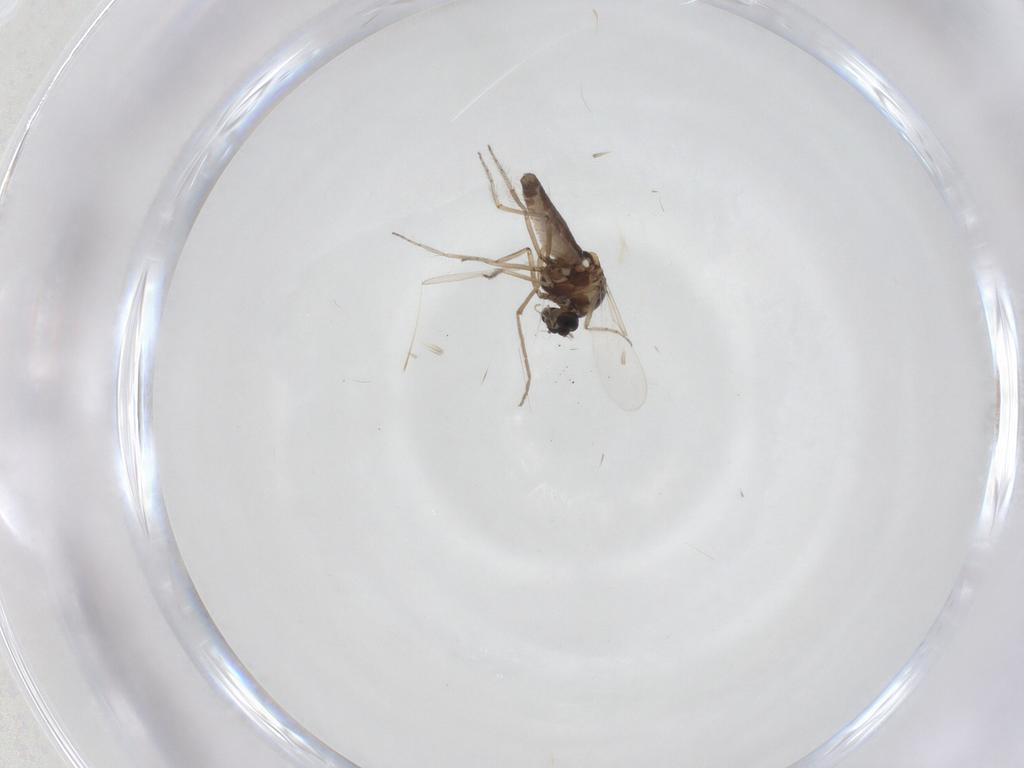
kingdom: Animalia
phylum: Arthropoda
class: Insecta
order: Diptera
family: Ceratopogonidae
